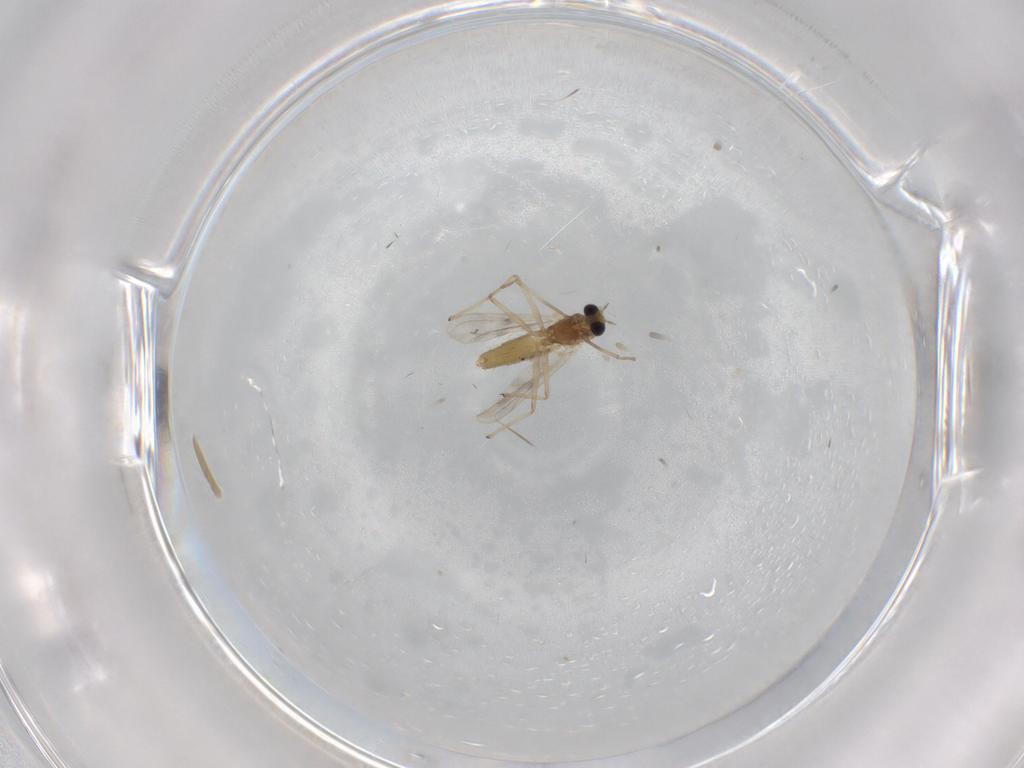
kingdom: Animalia
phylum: Arthropoda
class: Insecta
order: Diptera
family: Chironomidae
